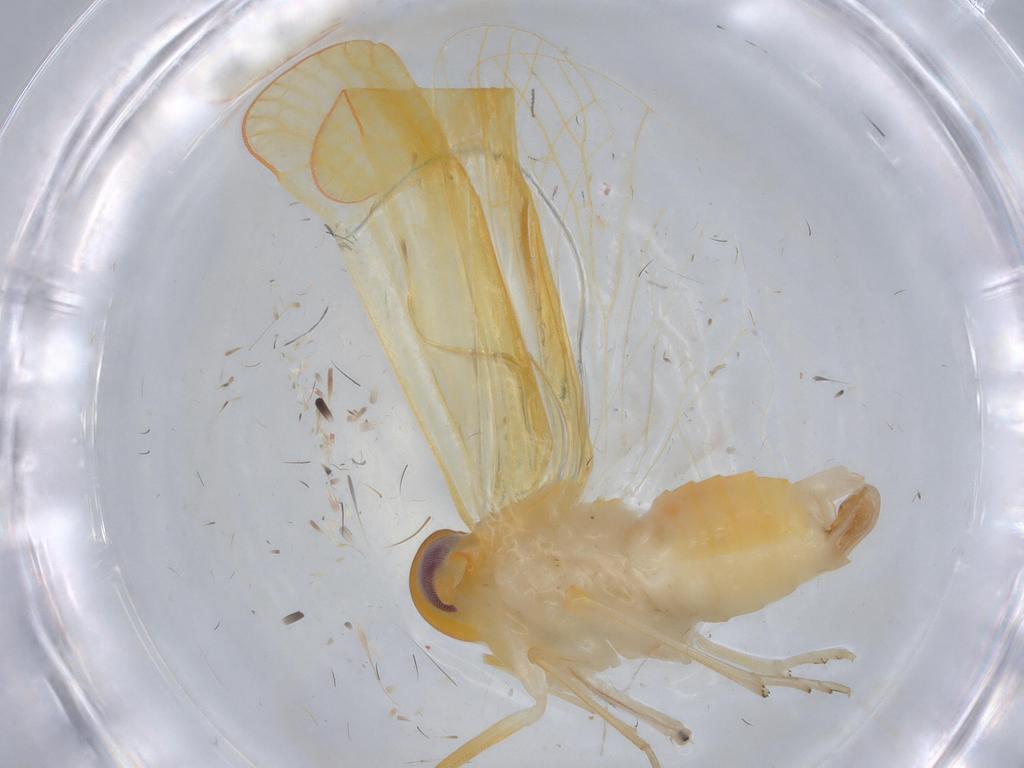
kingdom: Animalia
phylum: Arthropoda
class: Insecta
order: Hemiptera
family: Derbidae
